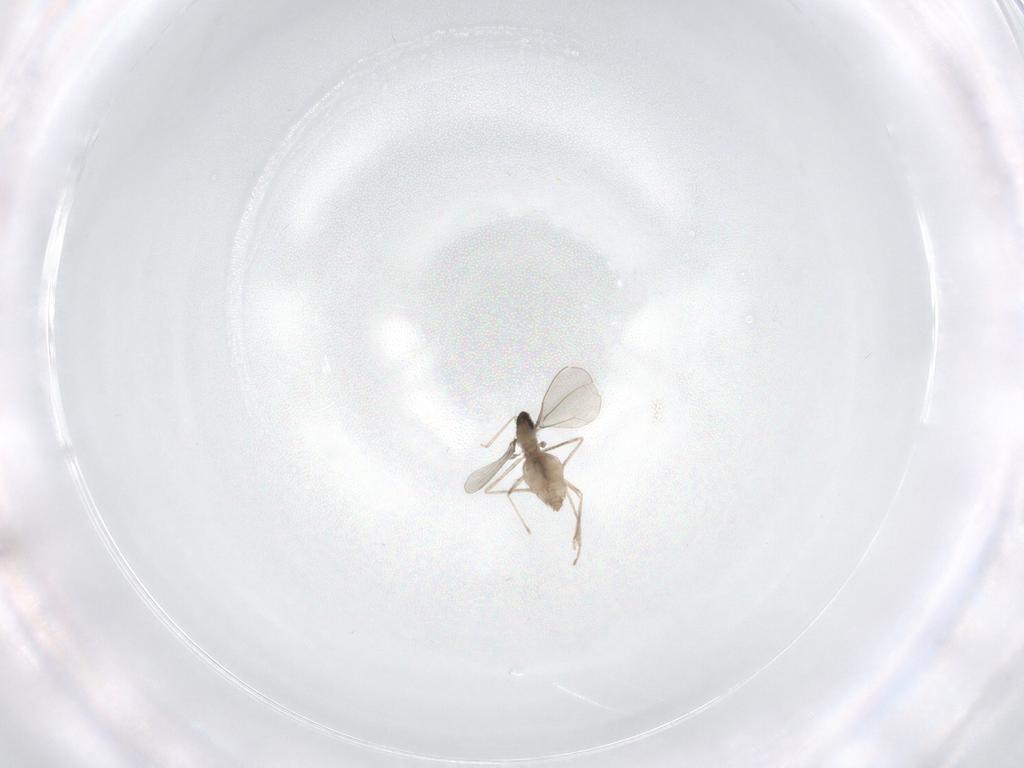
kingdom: Animalia
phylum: Arthropoda
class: Insecta
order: Diptera
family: Cecidomyiidae
